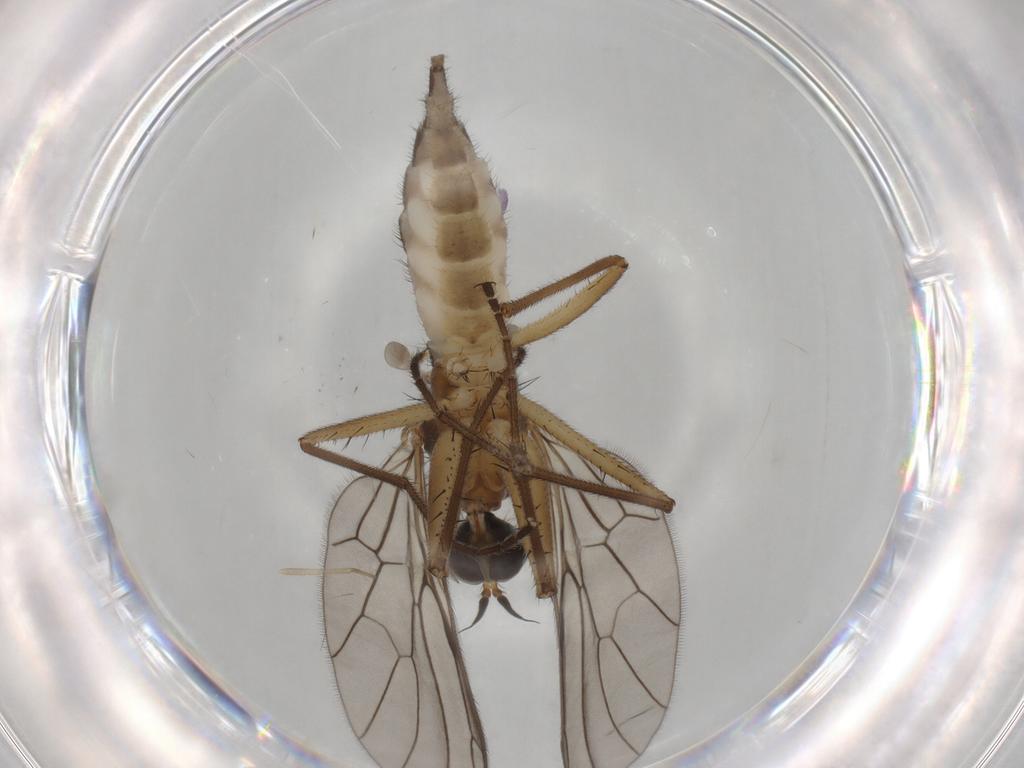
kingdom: Animalia
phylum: Arthropoda
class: Insecta
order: Diptera
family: Empididae
